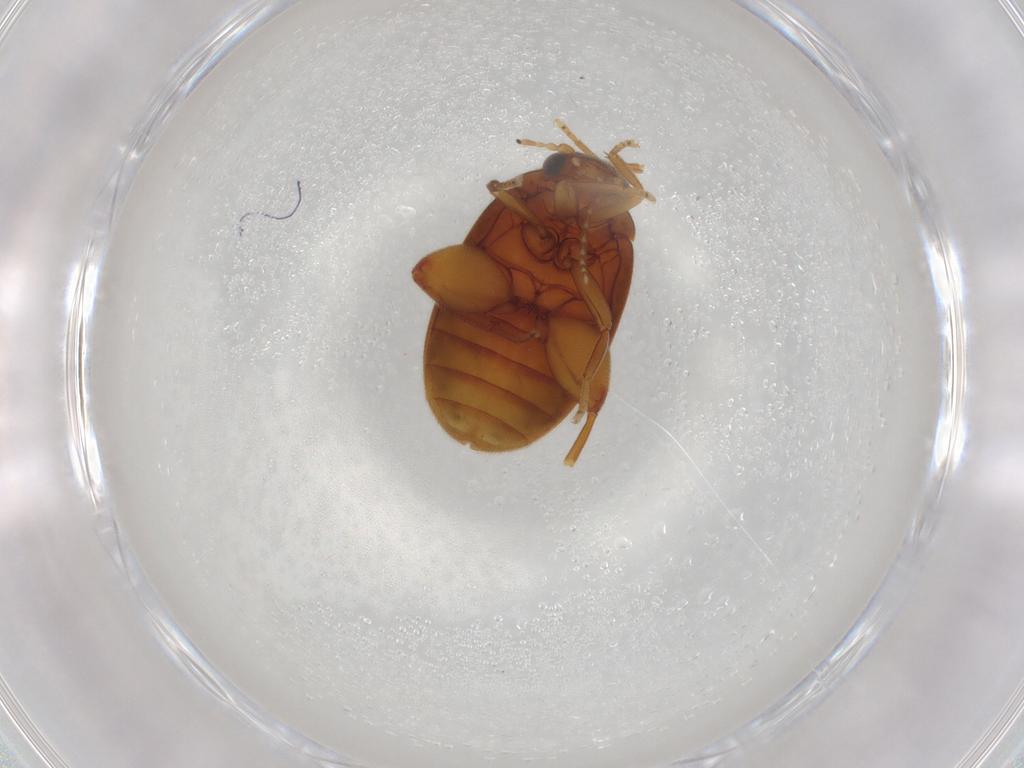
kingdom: Animalia
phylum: Arthropoda
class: Insecta
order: Coleoptera
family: Scirtidae
